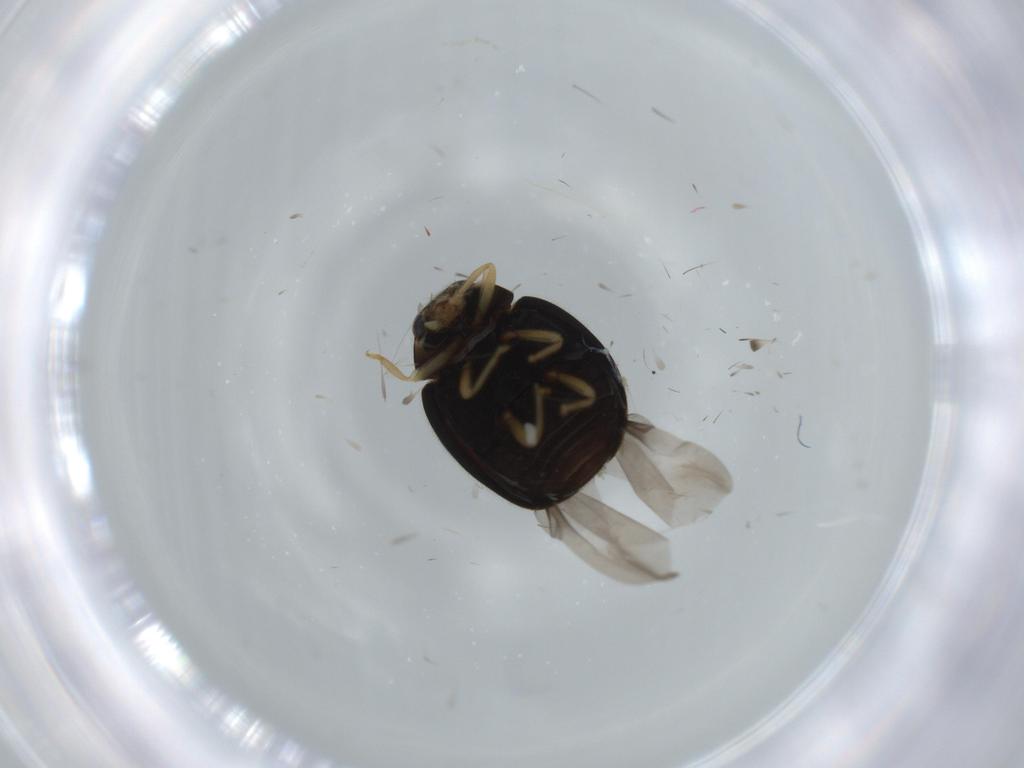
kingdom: Animalia
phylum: Arthropoda
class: Insecta
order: Coleoptera
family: Coccinellidae
